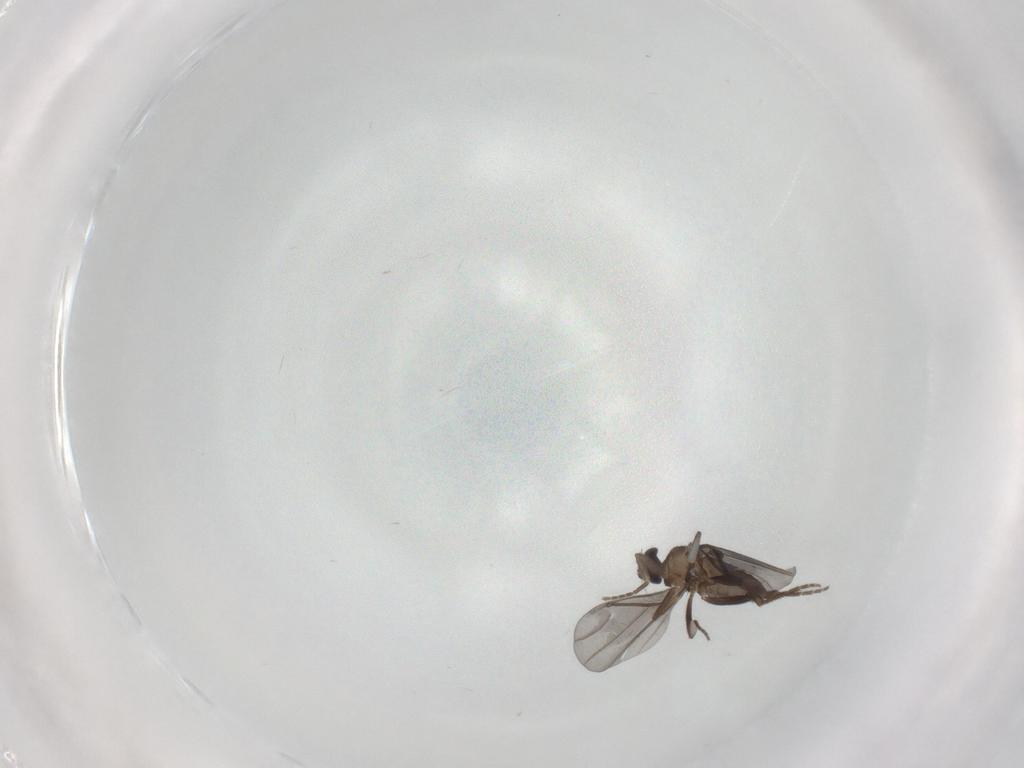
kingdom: Animalia
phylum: Arthropoda
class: Insecta
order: Diptera
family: Phoridae
